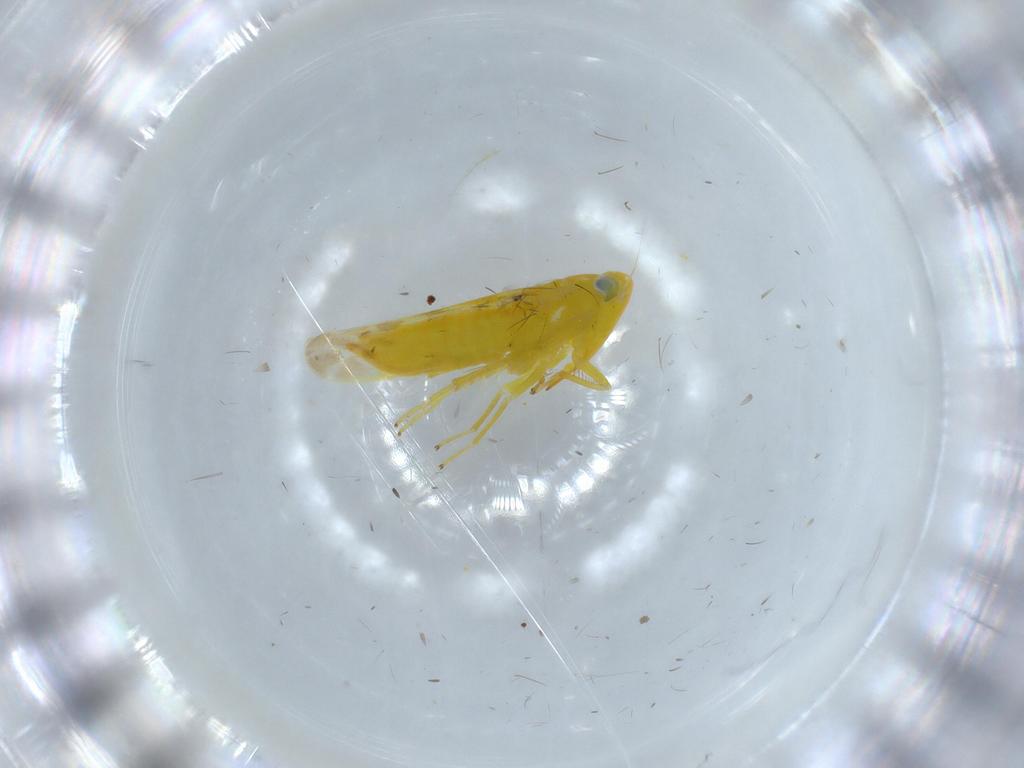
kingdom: Animalia
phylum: Arthropoda
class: Insecta
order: Hemiptera
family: Cicadellidae
